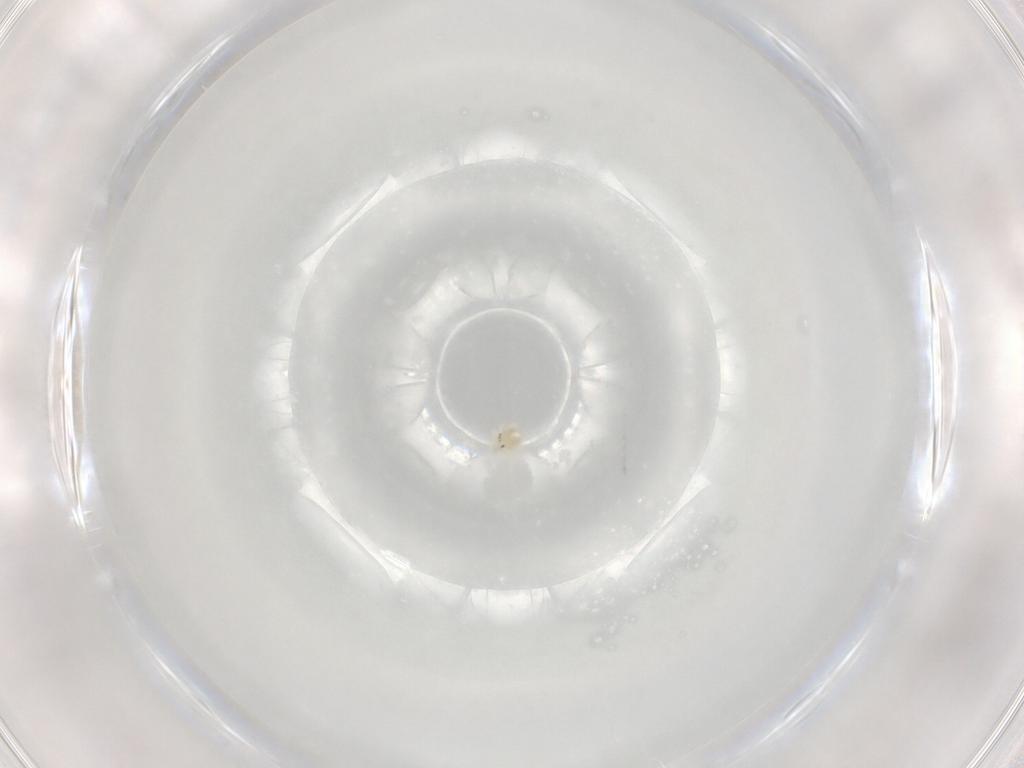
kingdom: Animalia
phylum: Arthropoda
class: Arachnida
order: Trombidiformes
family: Hydryphantidae
